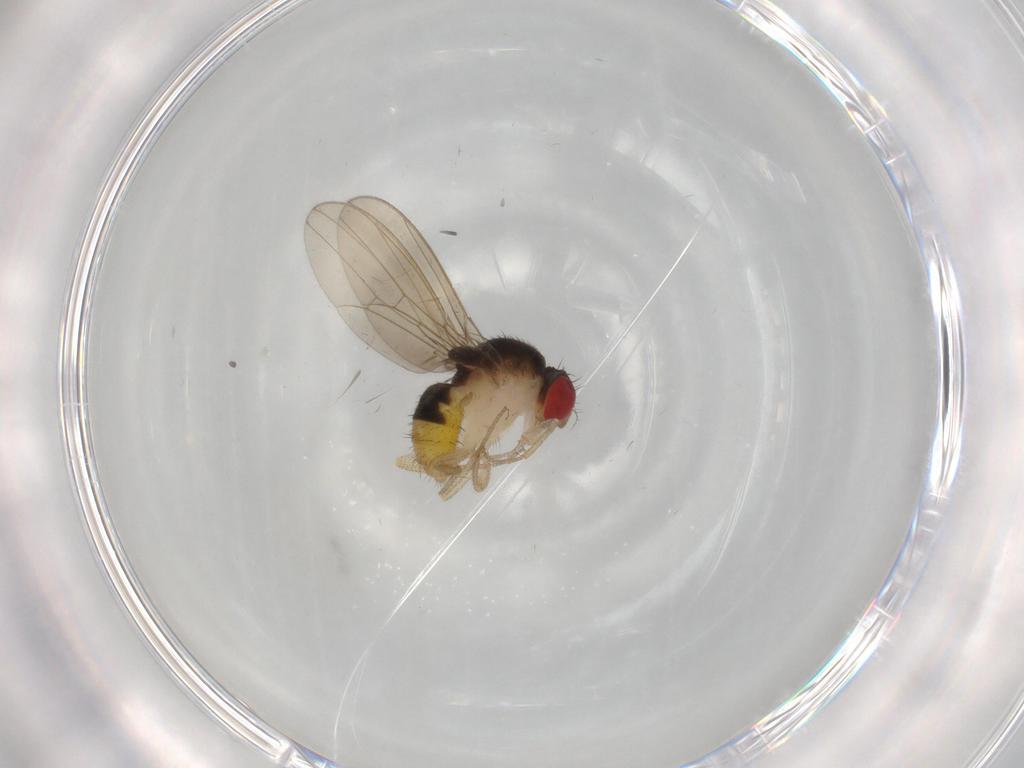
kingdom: Animalia
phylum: Arthropoda
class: Insecta
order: Diptera
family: Drosophilidae
